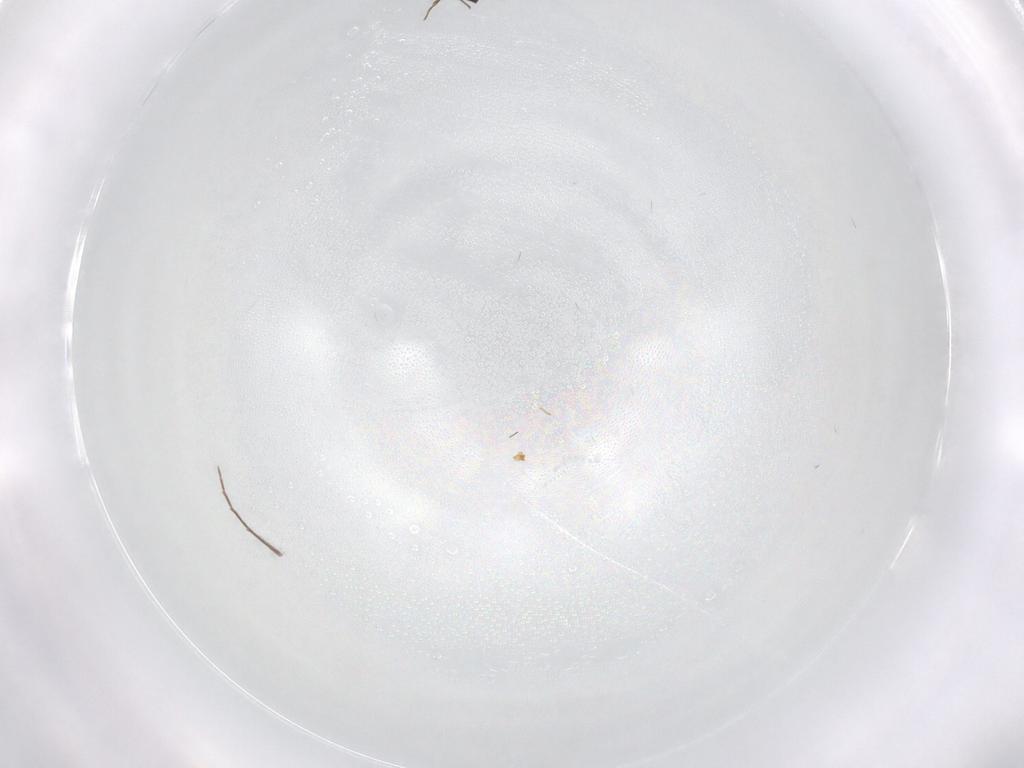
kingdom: Animalia
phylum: Arthropoda
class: Insecta
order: Hymenoptera
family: Scelionidae
